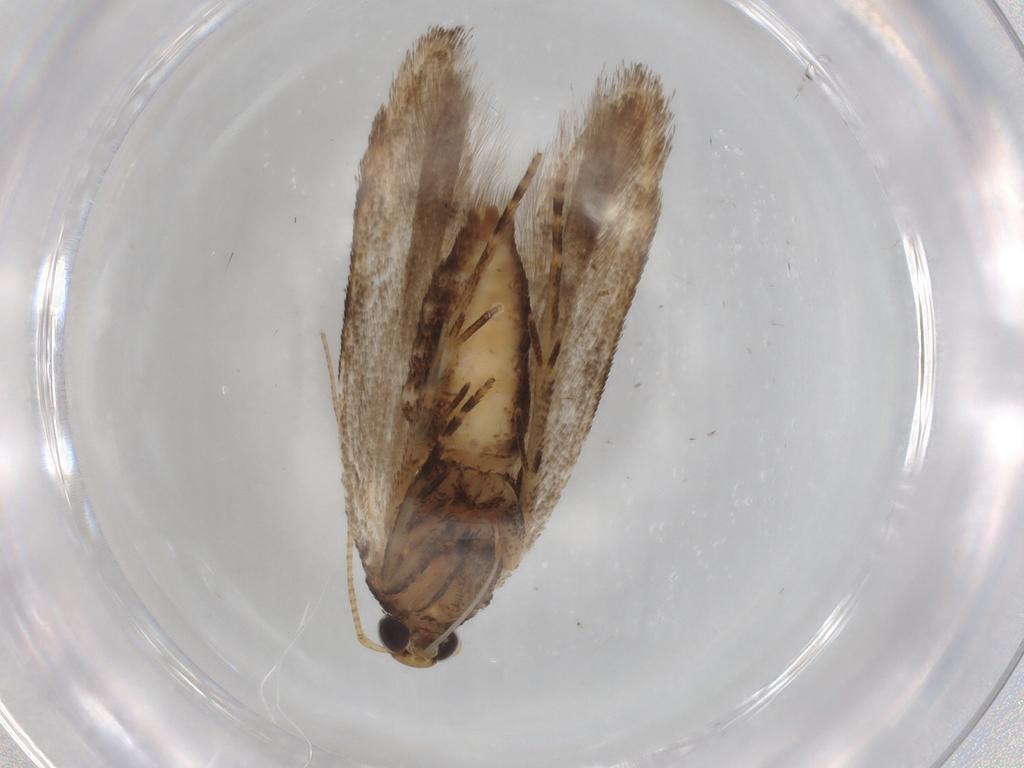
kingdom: Animalia
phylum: Arthropoda
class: Insecta
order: Lepidoptera
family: Gelechiidae
